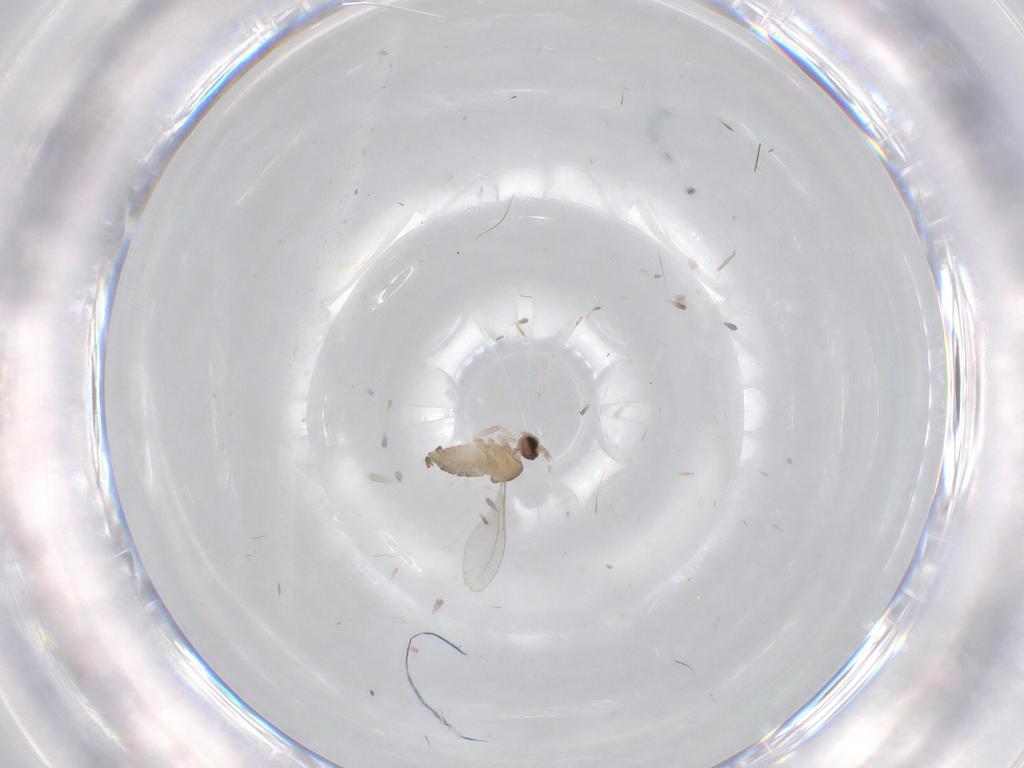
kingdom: Animalia
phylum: Arthropoda
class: Insecta
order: Diptera
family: Cecidomyiidae
